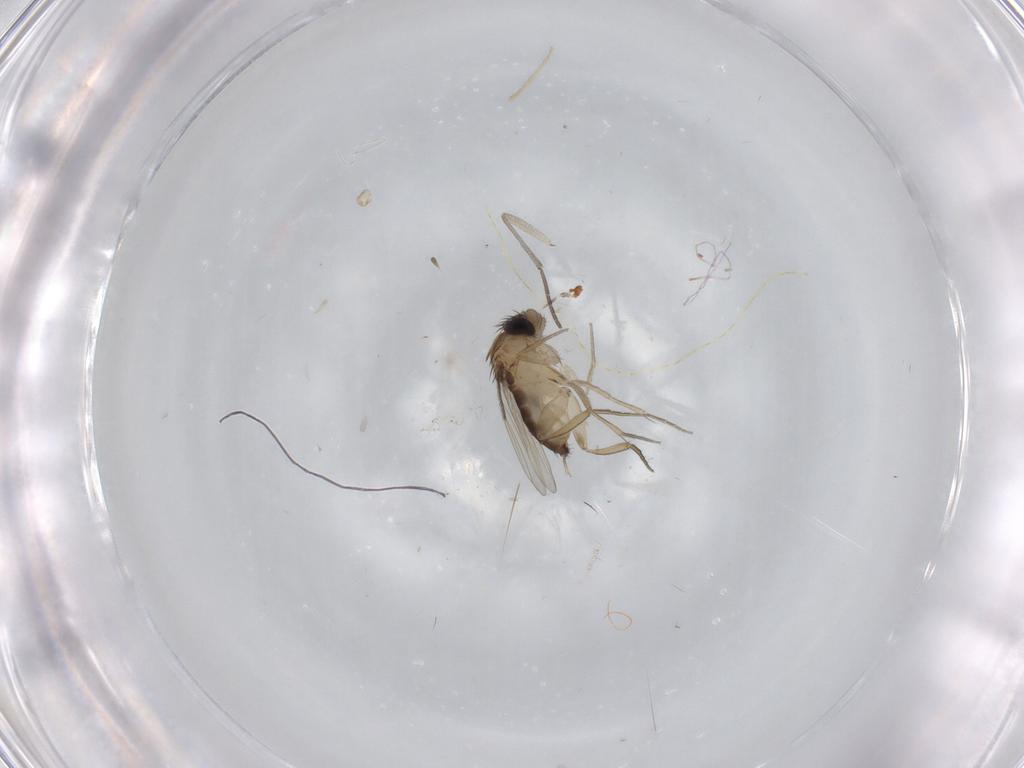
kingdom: Animalia
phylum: Arthropoda
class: Insecta
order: Diptera
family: Phoridae
